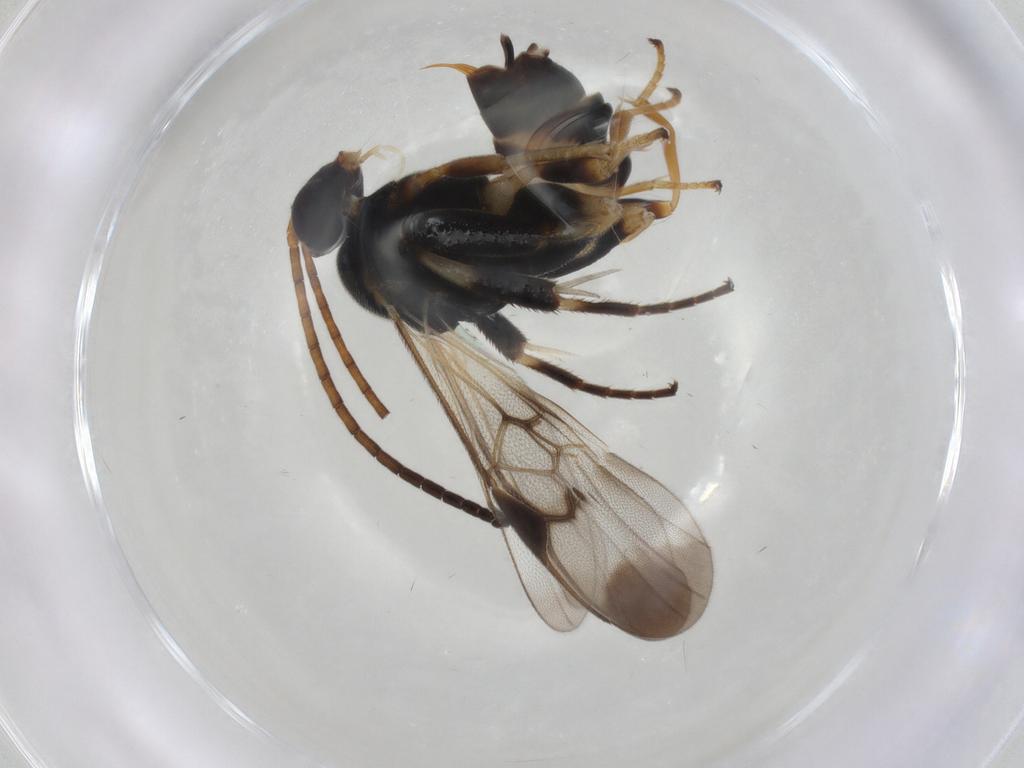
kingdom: Animalia
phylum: Arthropoda
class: Insecta
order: Hymenoptera
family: Braconidae
